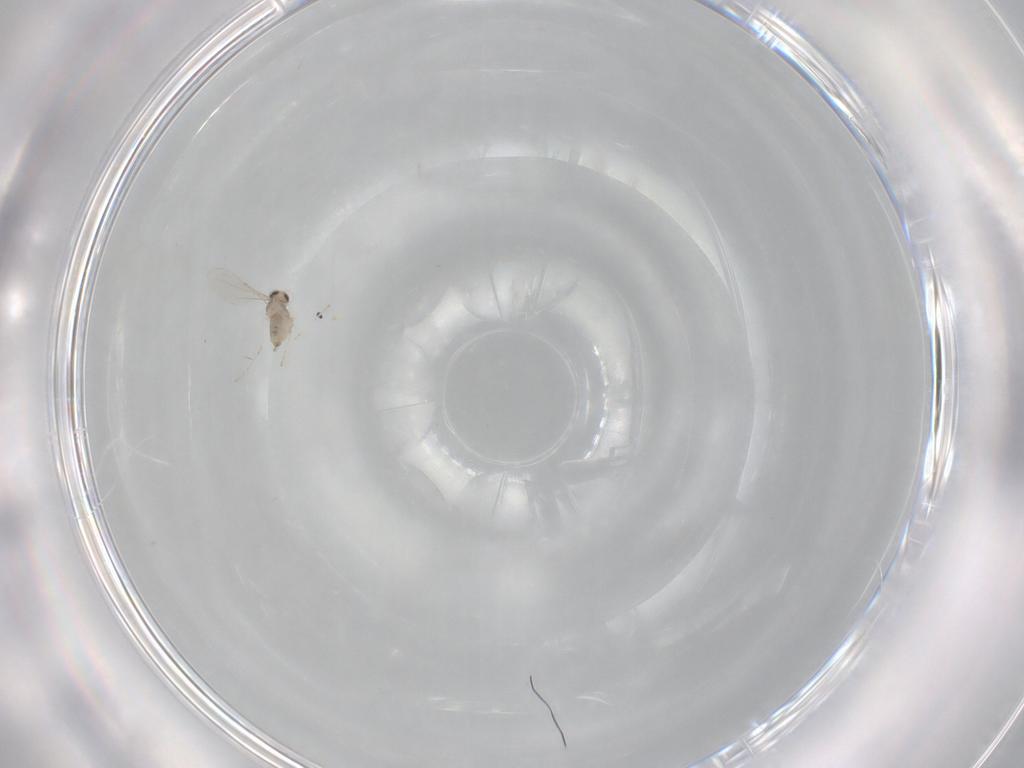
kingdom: Animalia
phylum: Arthropoda
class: Insecta
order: Diptera
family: Cecidomyiidae
